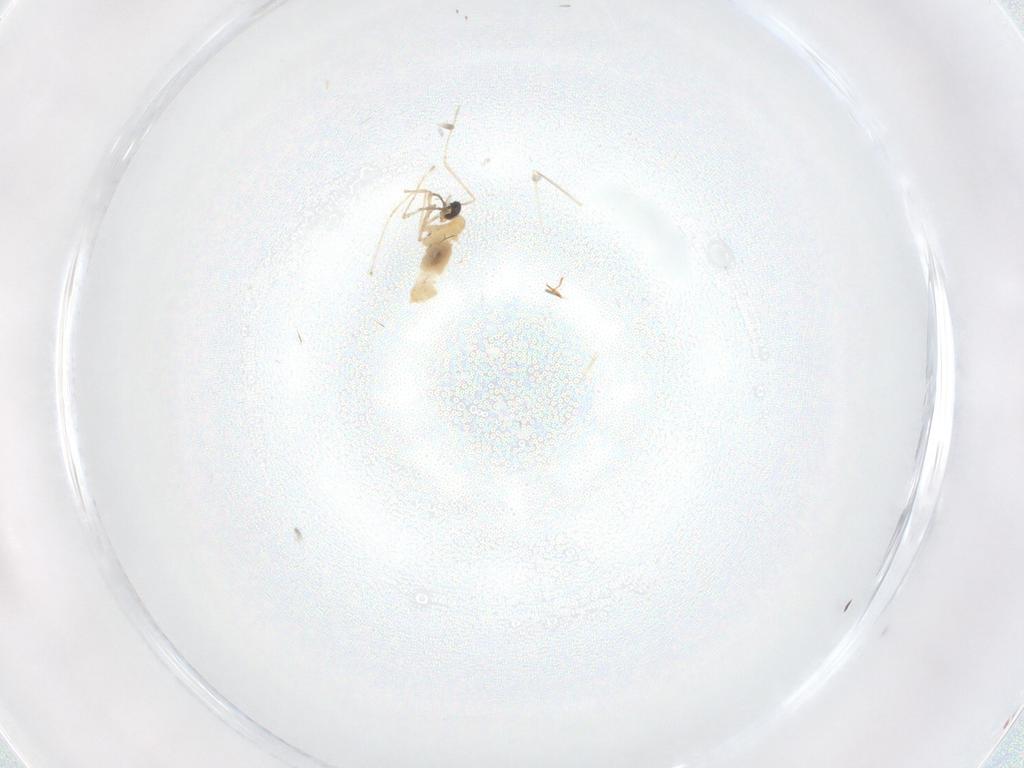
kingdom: Animalia
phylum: Arthropoda
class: Insecta
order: Diptera
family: Cecidomyiidae
